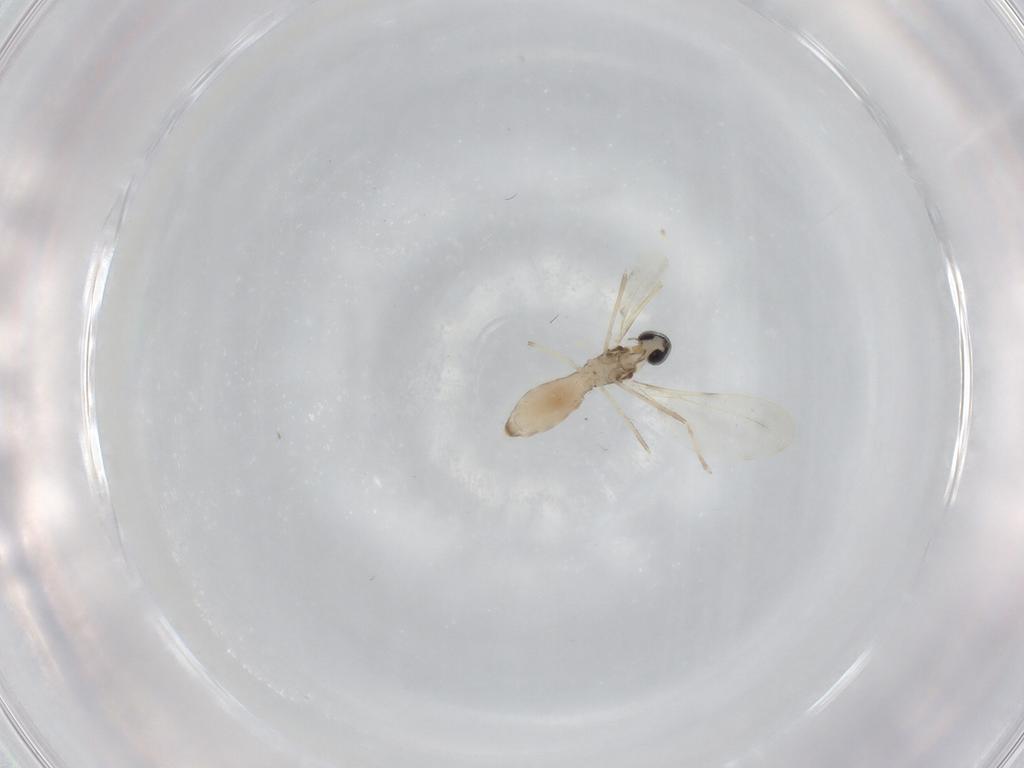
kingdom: Animalia
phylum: Arthropoda
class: Insecta
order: Diptera
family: Cecidomyiidae
